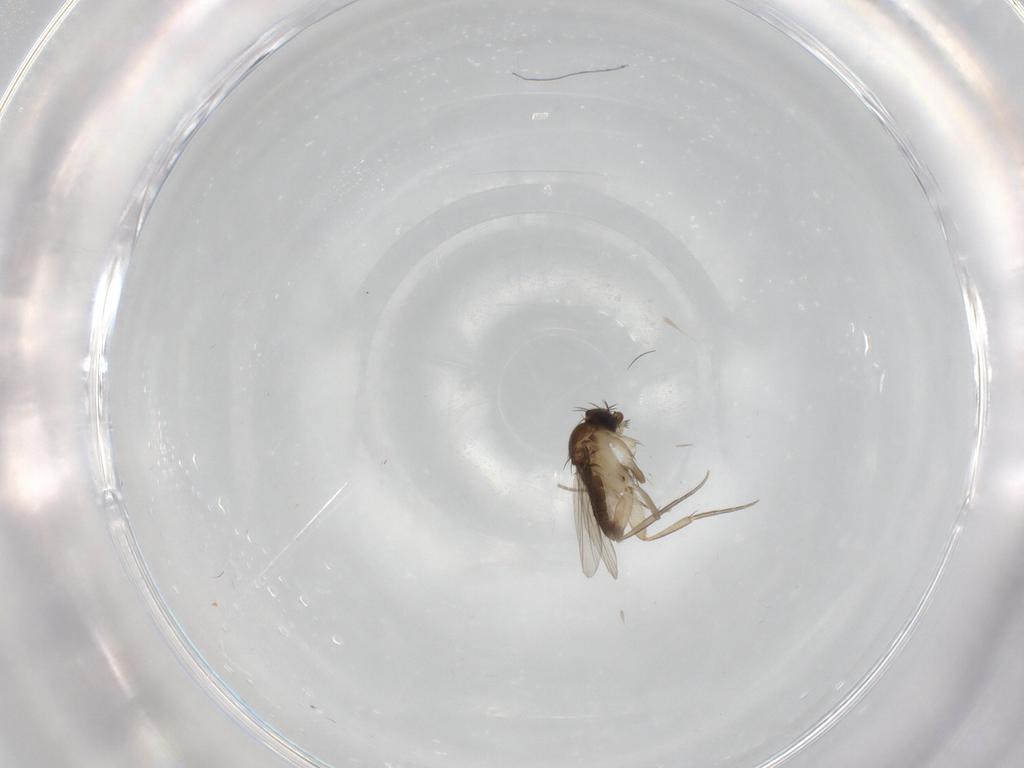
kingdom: Animalia
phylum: Arthropoda
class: Insecta
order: Diptera
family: Phoridae
